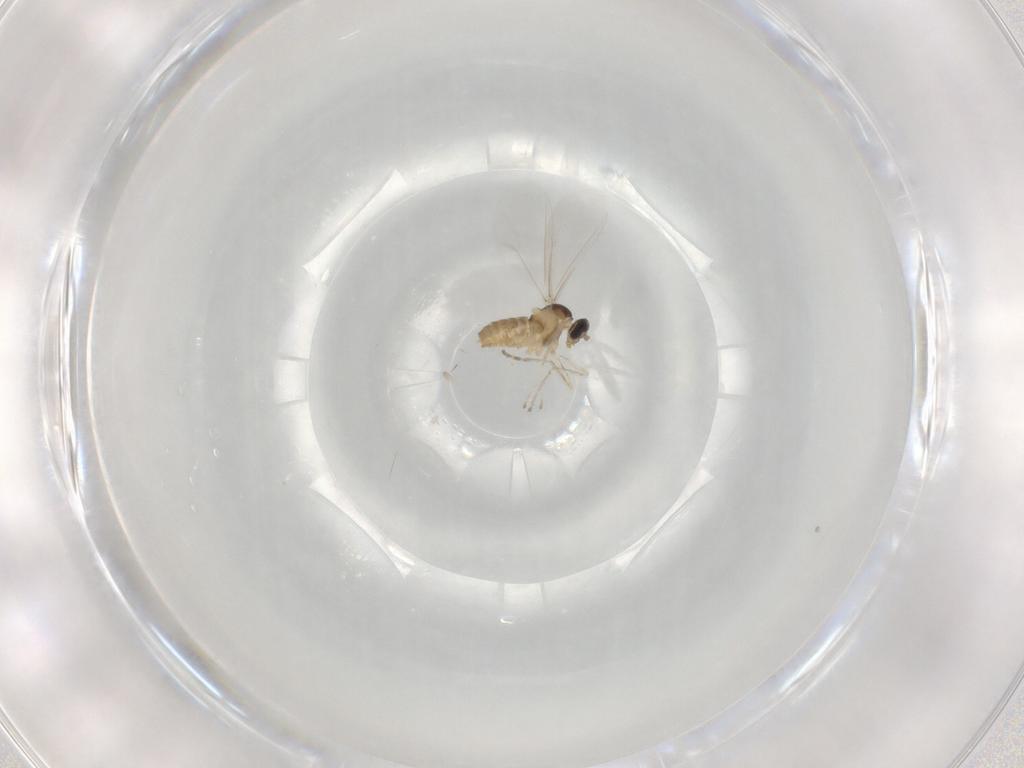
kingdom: Animalia
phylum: Arthropoda
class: Insecta
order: Diptera
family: Cecidomyiidae
